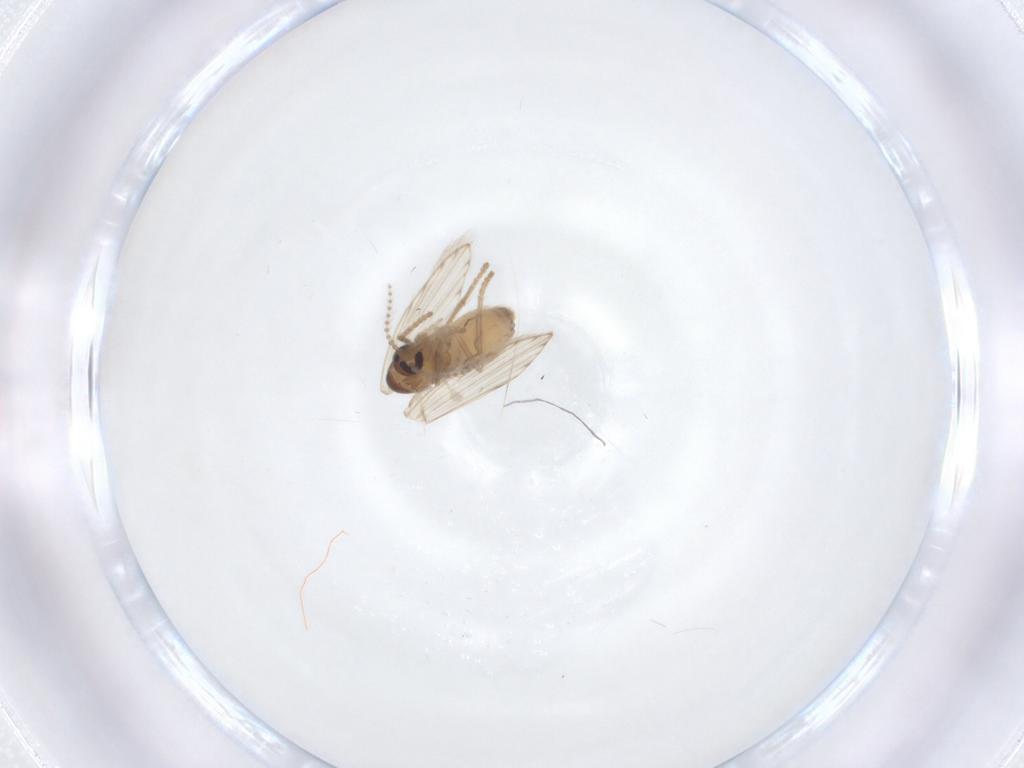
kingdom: Animalia
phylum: Arthropoda
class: Insecta
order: Diptera
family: Psychodidae
